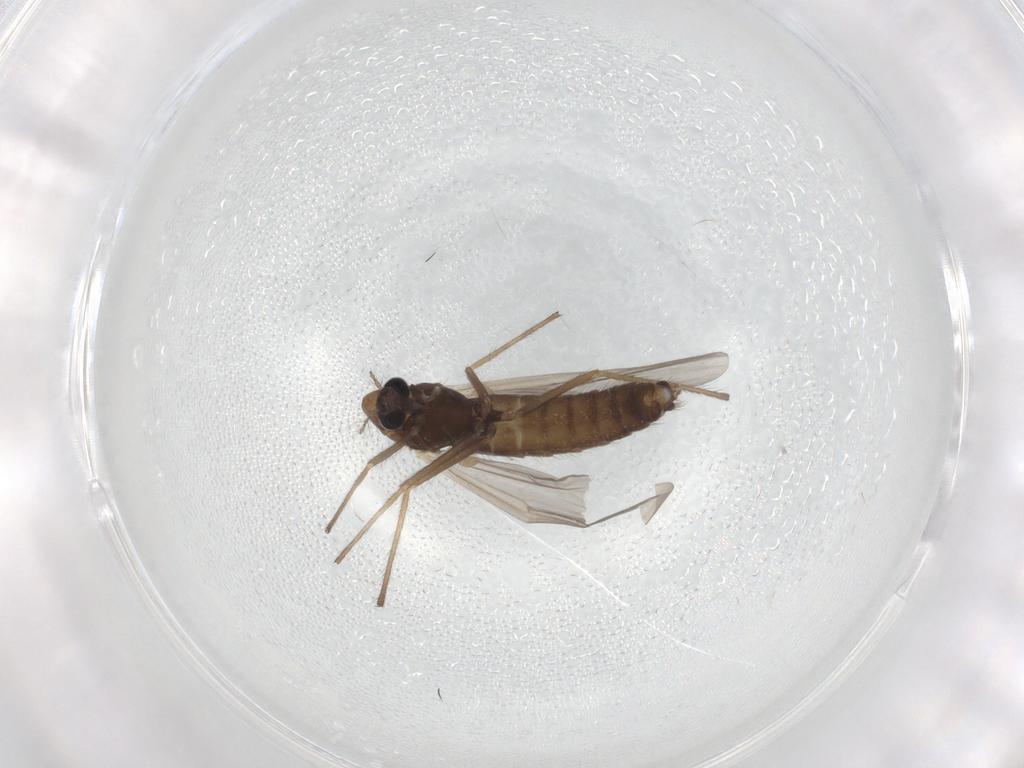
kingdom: Animalia
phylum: Arthropoda
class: Insecta
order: Diptera
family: Chironomidae
